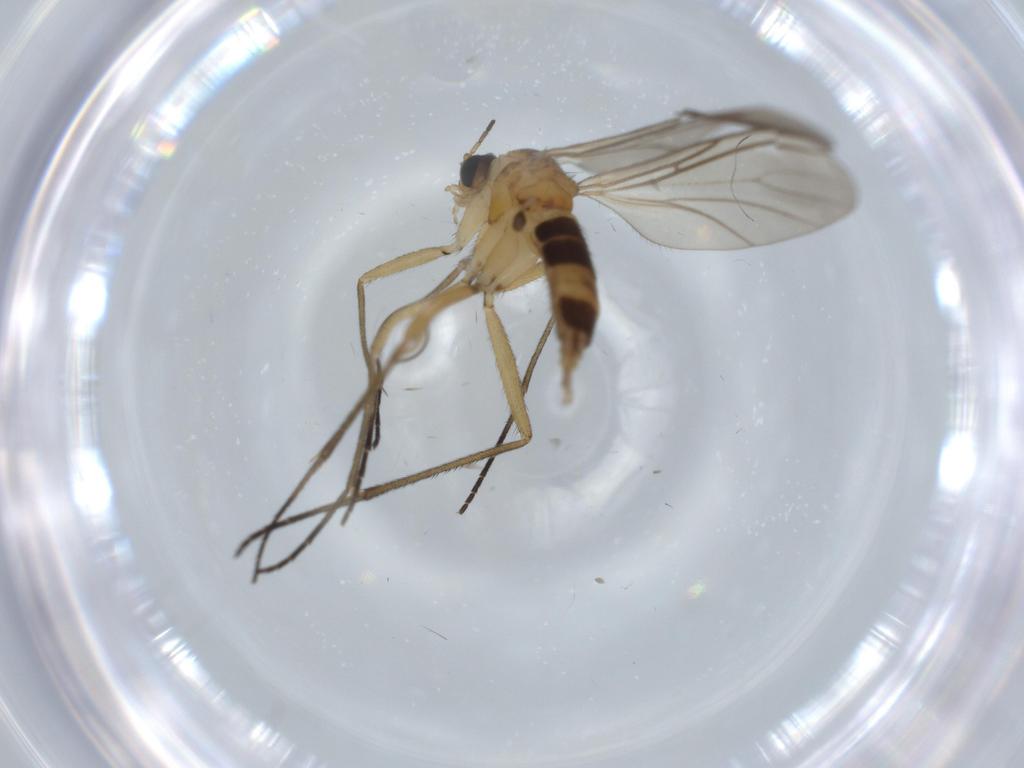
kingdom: Animalia
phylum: Arthropoda
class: Insecta
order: Diptera
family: Sciaridae
